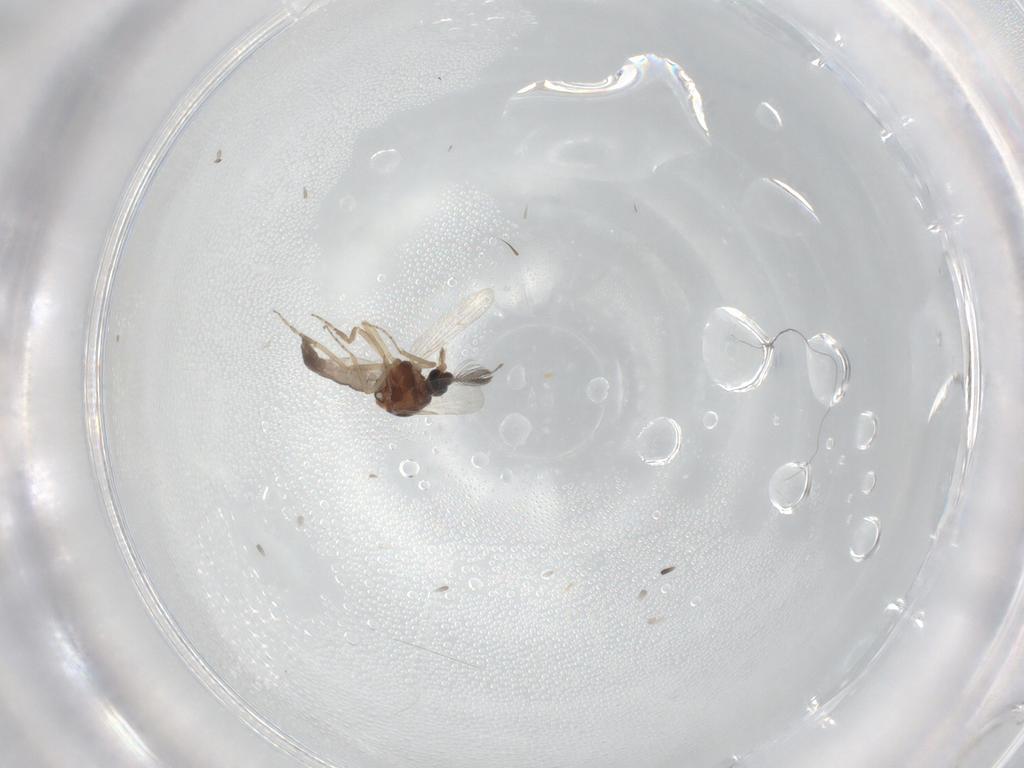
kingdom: Animalia
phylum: Arthropoda
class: Insecta
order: Diptera
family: Ceratopogonidae
